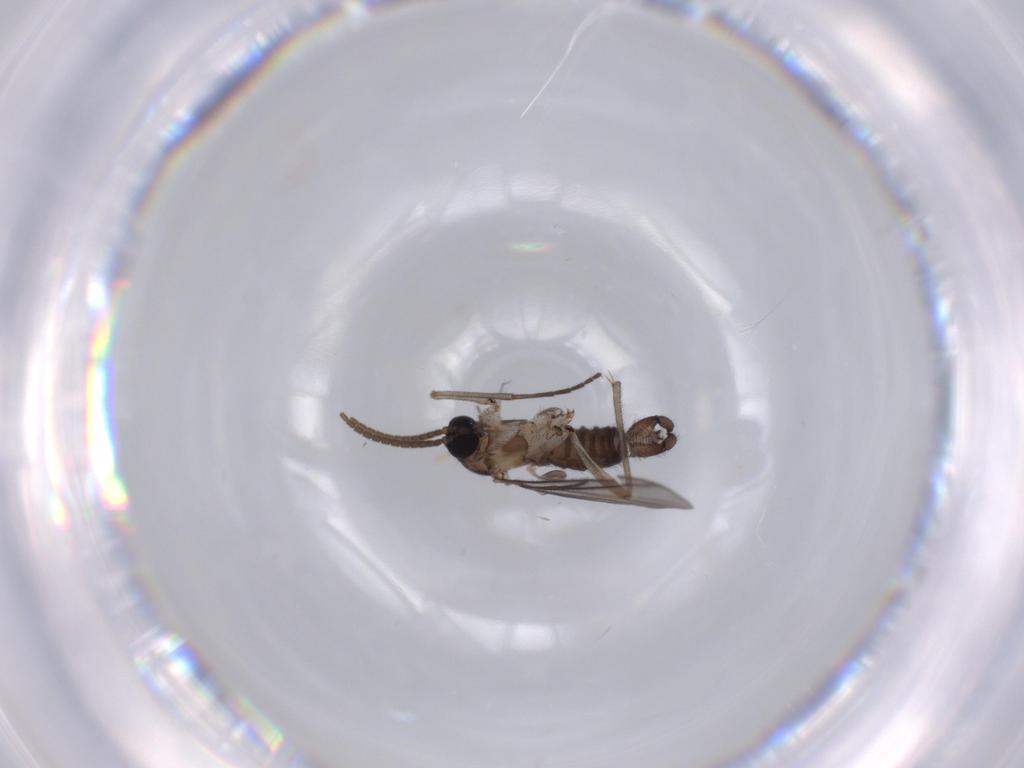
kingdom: Animalia
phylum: Arthropoda
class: Insecta
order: Diptera
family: Sciaridae
